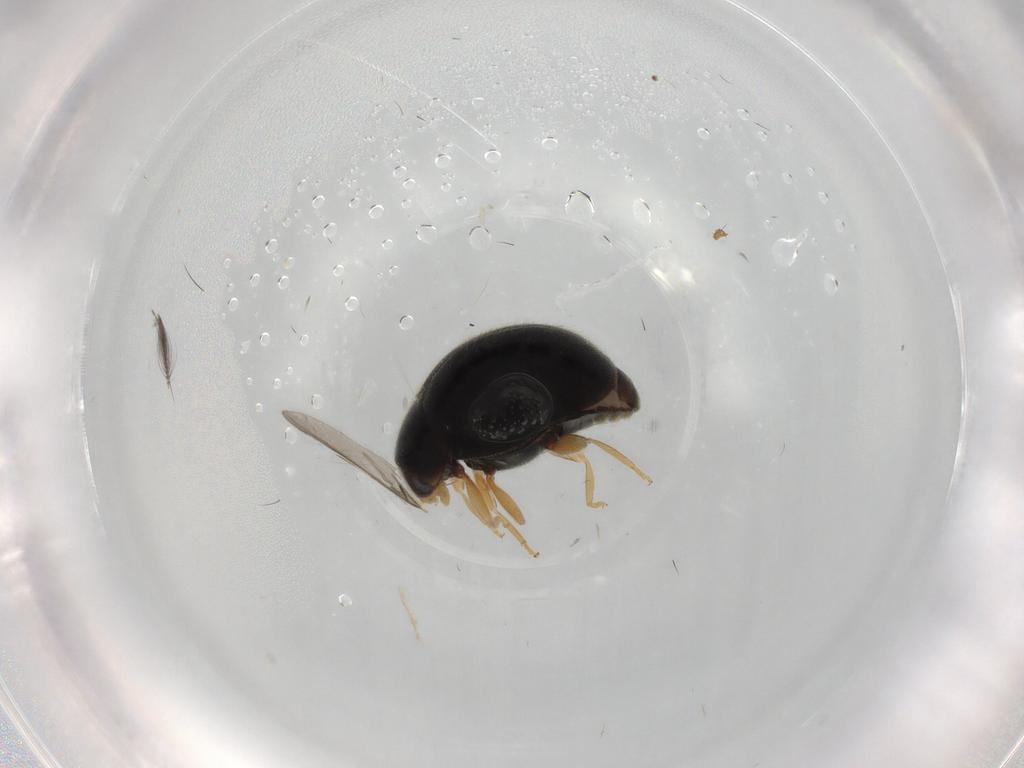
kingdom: Animalia
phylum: Arthropoda
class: Insecta
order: Coleoptera
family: Coccinellidae
